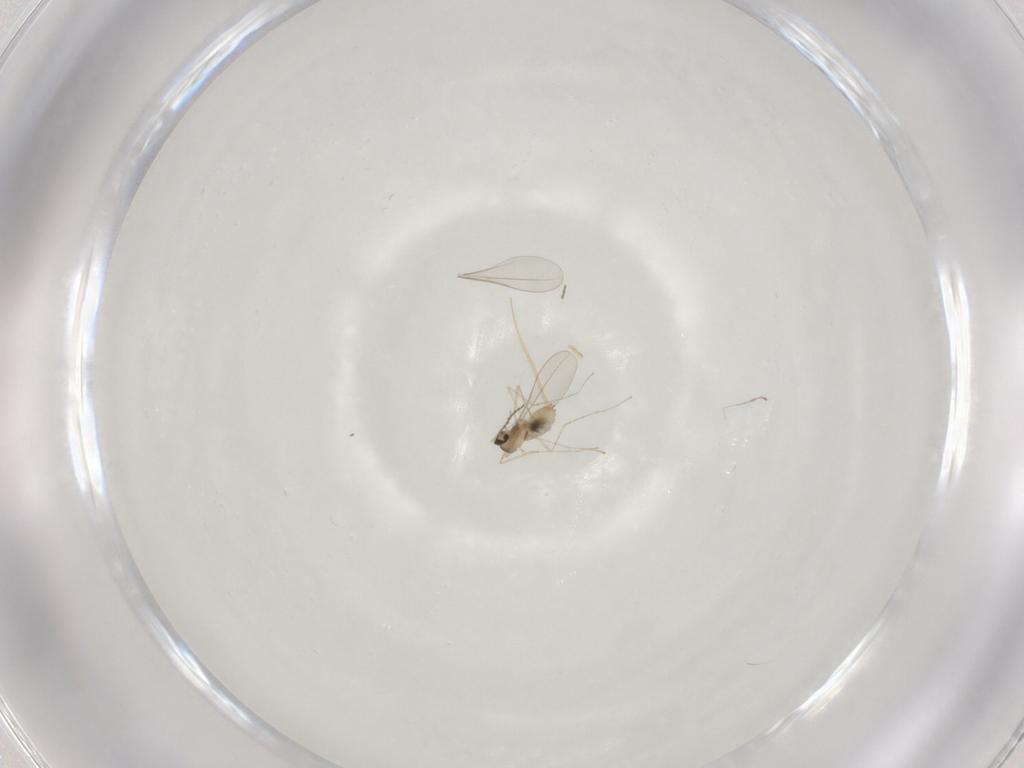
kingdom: Animalia
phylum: Arthropoda
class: Insecta
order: Diptera
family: Cecidomyiidae
